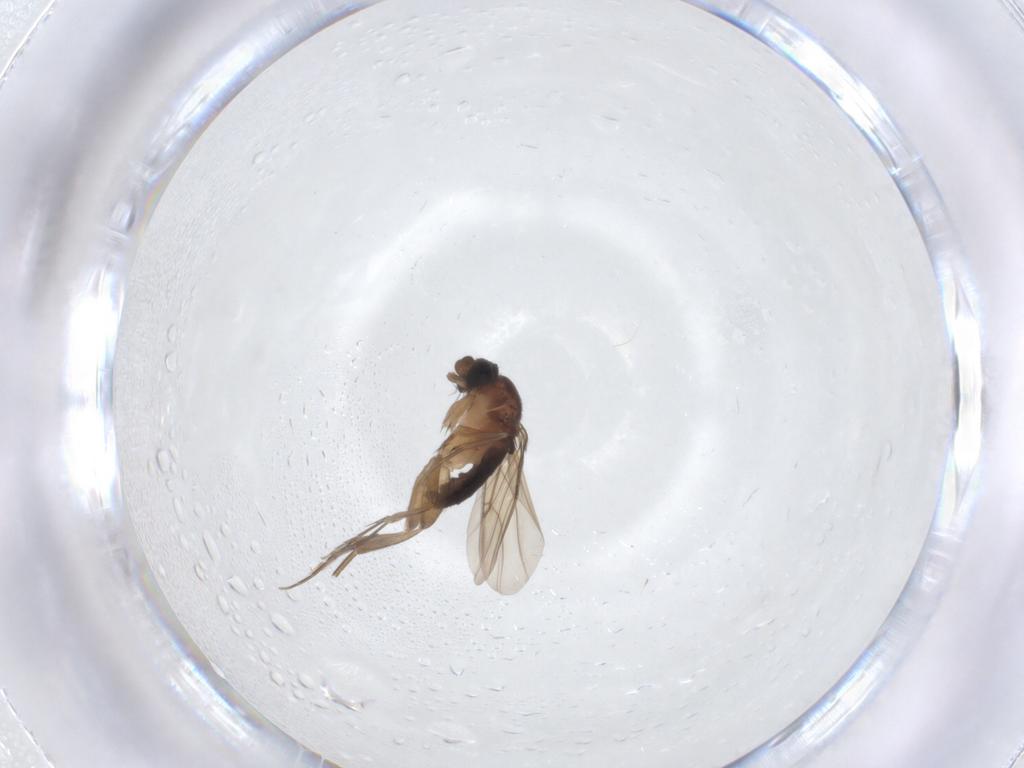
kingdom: Animalia
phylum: Arthropoda
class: Insecta
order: Diptera
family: Phoridae
